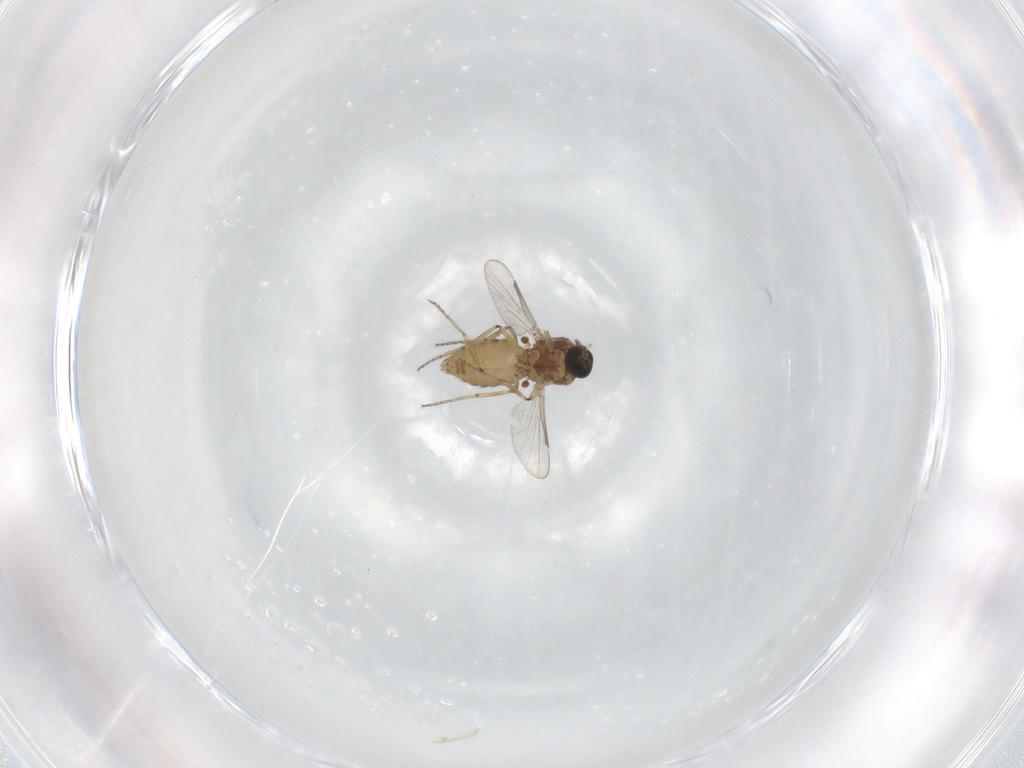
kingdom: Animalia
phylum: Arthropoda
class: Insecta
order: Diptera
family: Ceratopogonidae
